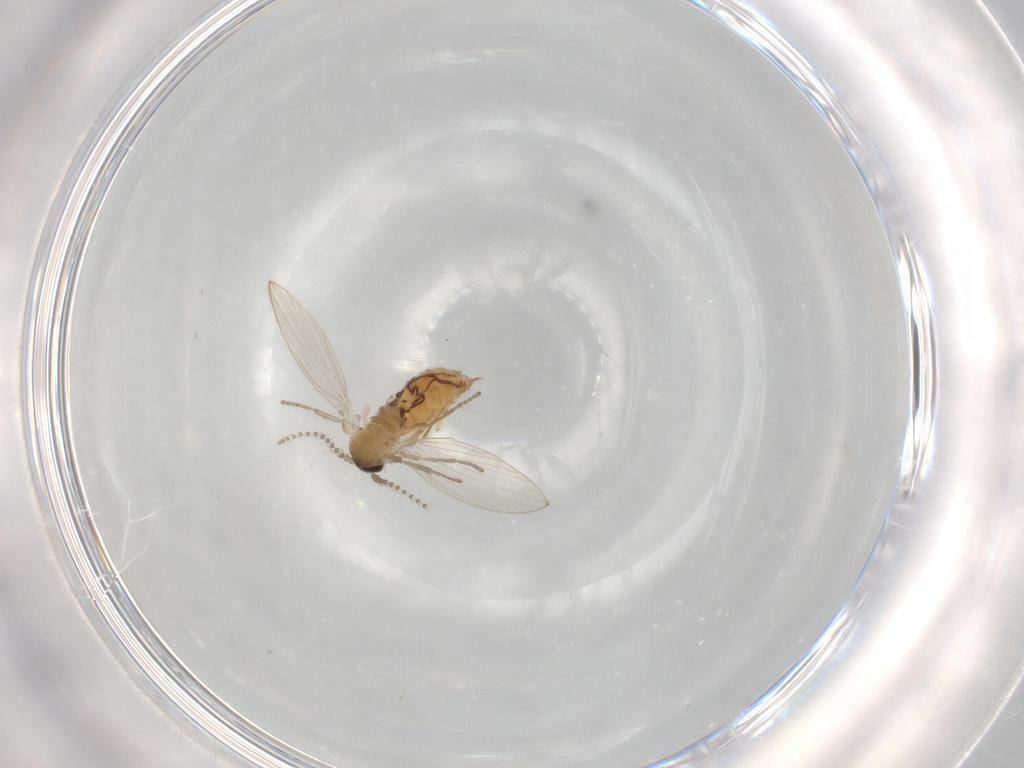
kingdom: Animalia
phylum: Arthropoda
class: Insecta
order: Diptera
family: Psychodidae
